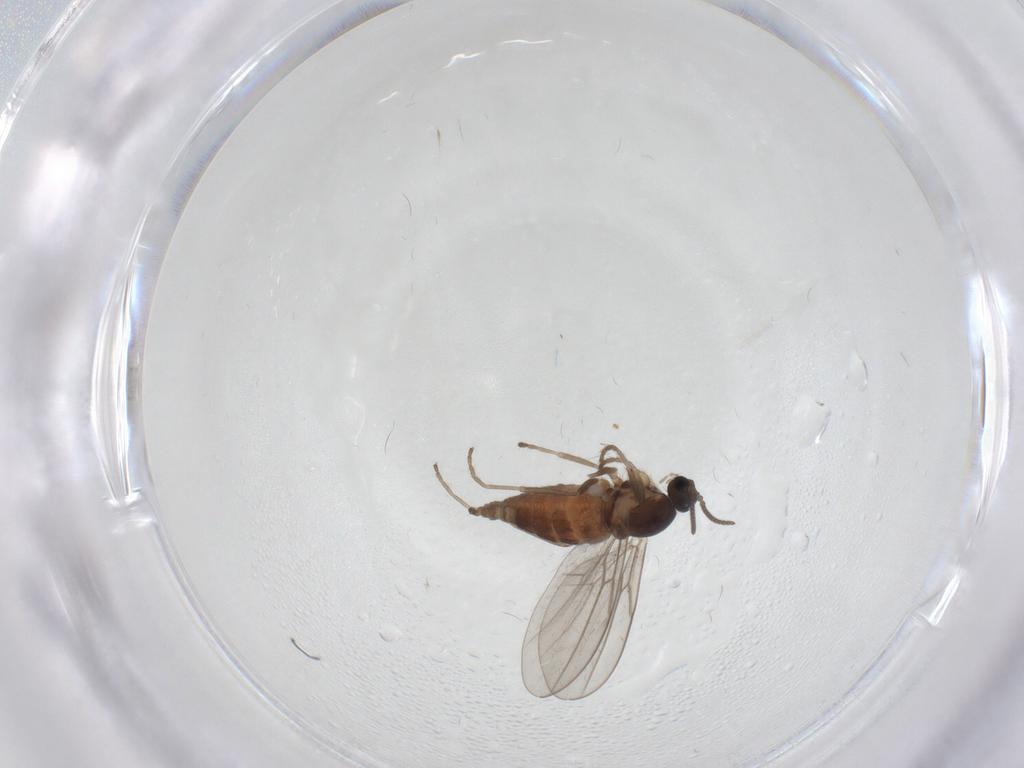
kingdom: Animalia
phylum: Arthropoda
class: Insecta
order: Diptera
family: Cecidomyiidae
